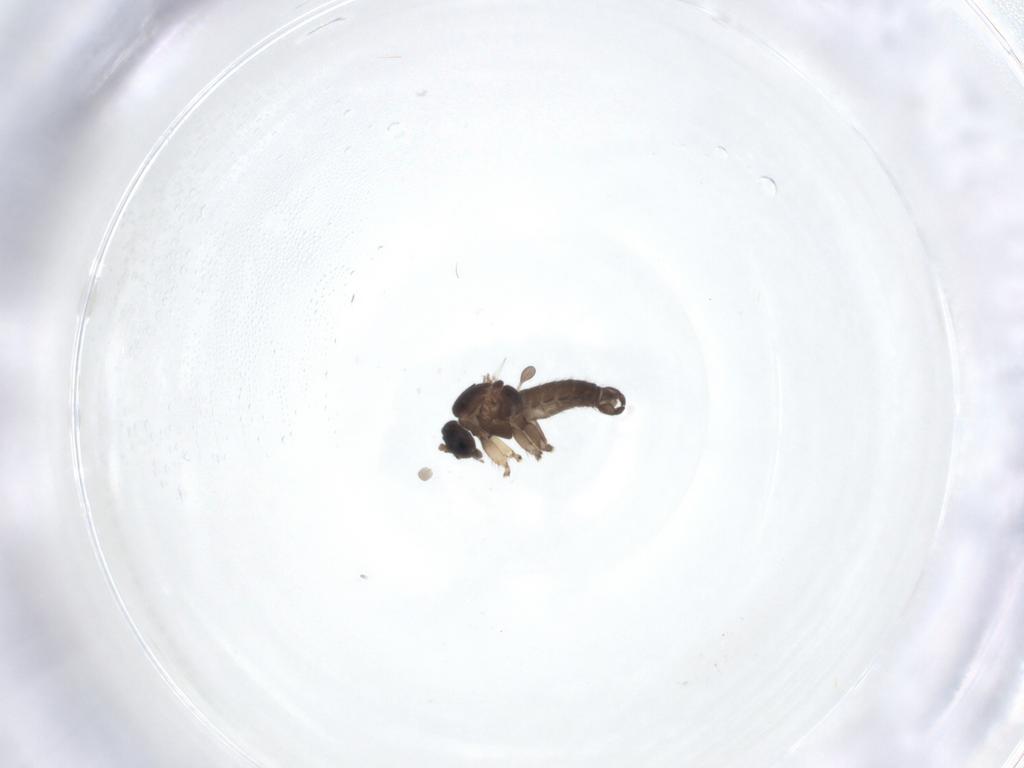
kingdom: Animalia
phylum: Arthropoda
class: Insecta
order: Diptera
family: Sciaridae
